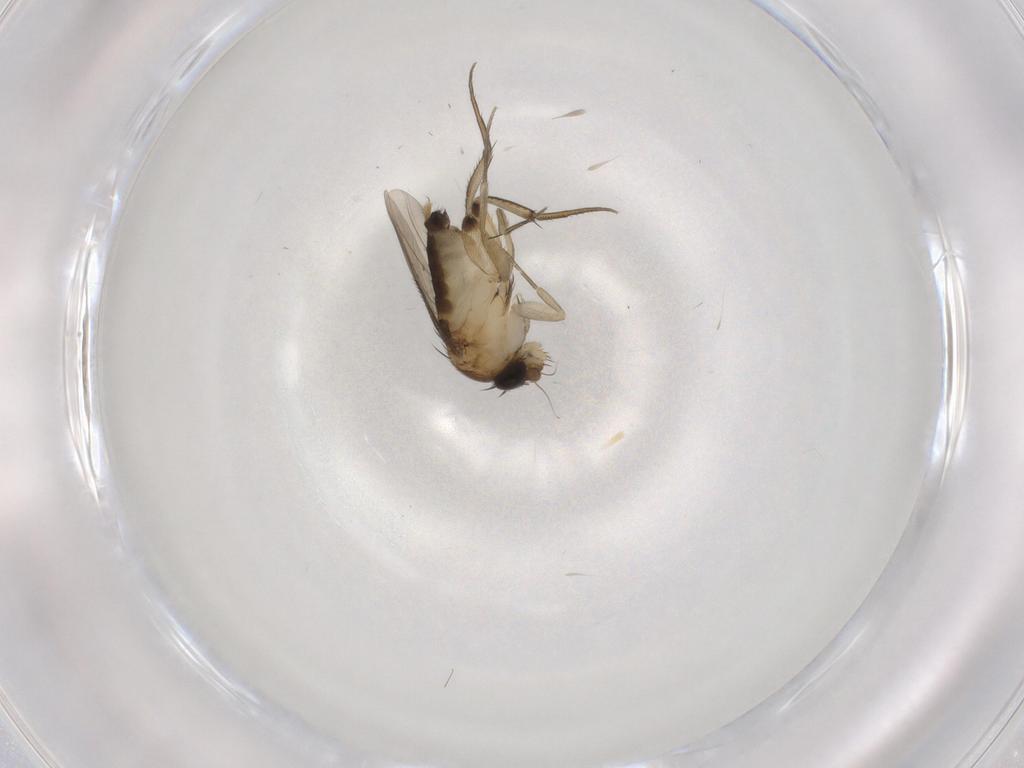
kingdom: Animalia
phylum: Arthropoda
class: Insecta
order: Diptera
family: Phoridae
